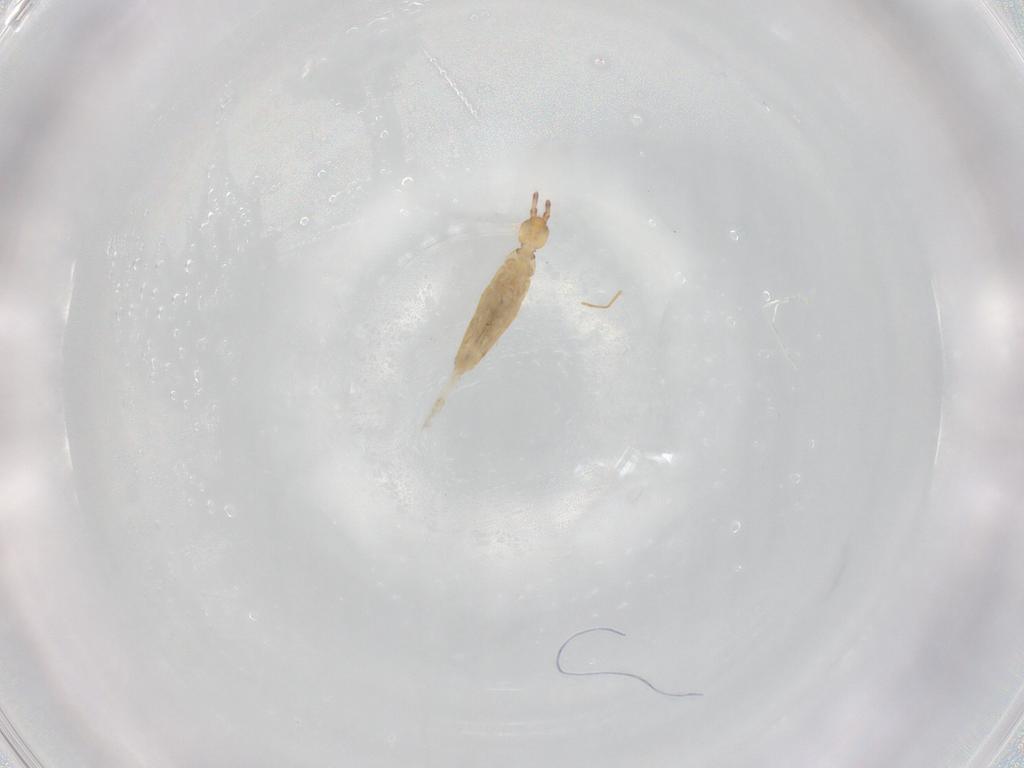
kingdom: Animalia
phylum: Arthropoda
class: Collembola
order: Entomobryomorpha
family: Entomobryidae
